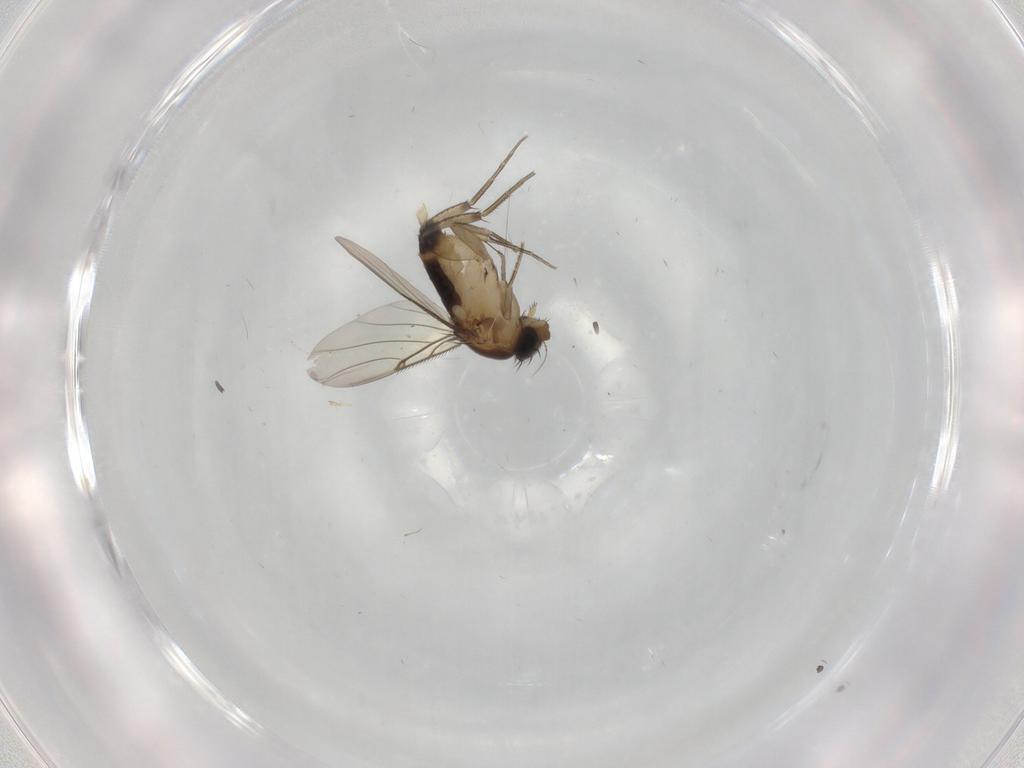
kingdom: Animalia
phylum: Arthropoda
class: Insecta
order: Diptera
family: Phoridae
